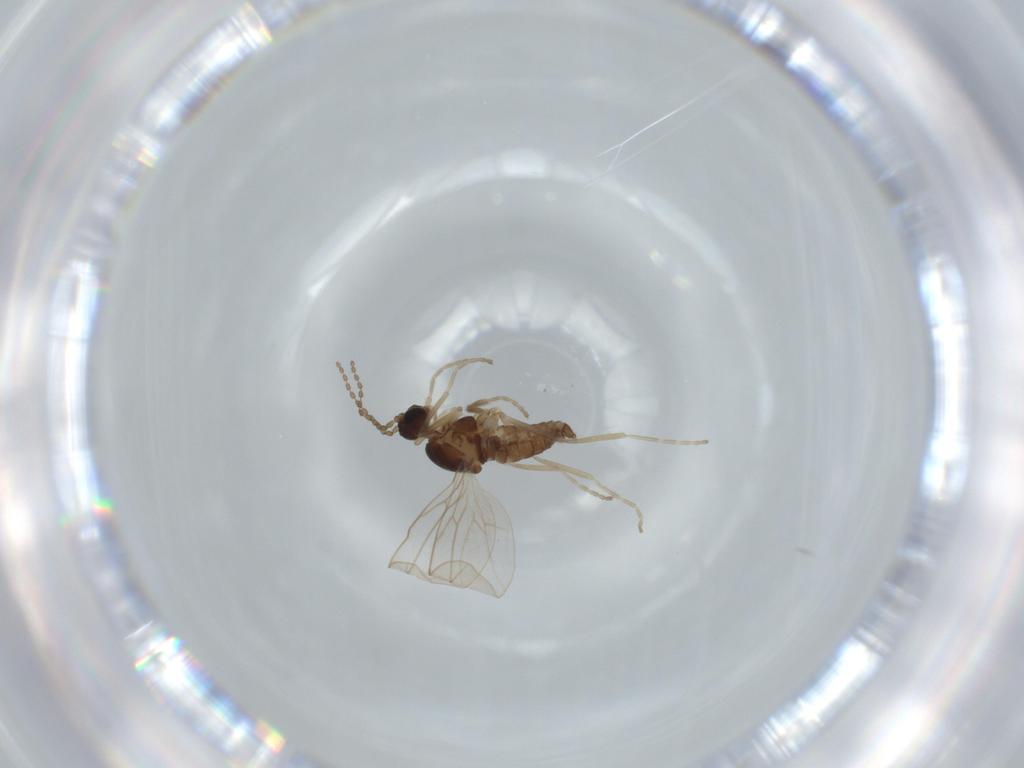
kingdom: Animalia
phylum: Arthropoda
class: Insecta
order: Diptera
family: Cecidomyiidae
